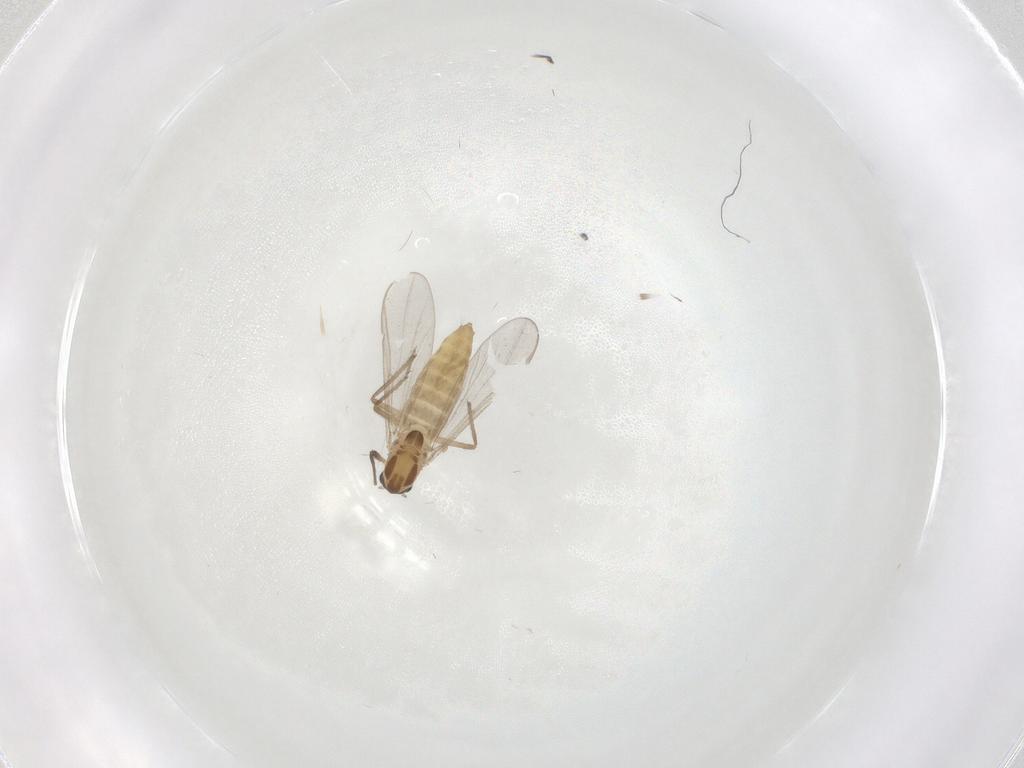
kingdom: Animalia
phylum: Arthropoda
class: Insecta
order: Diptera
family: Chironomidae
